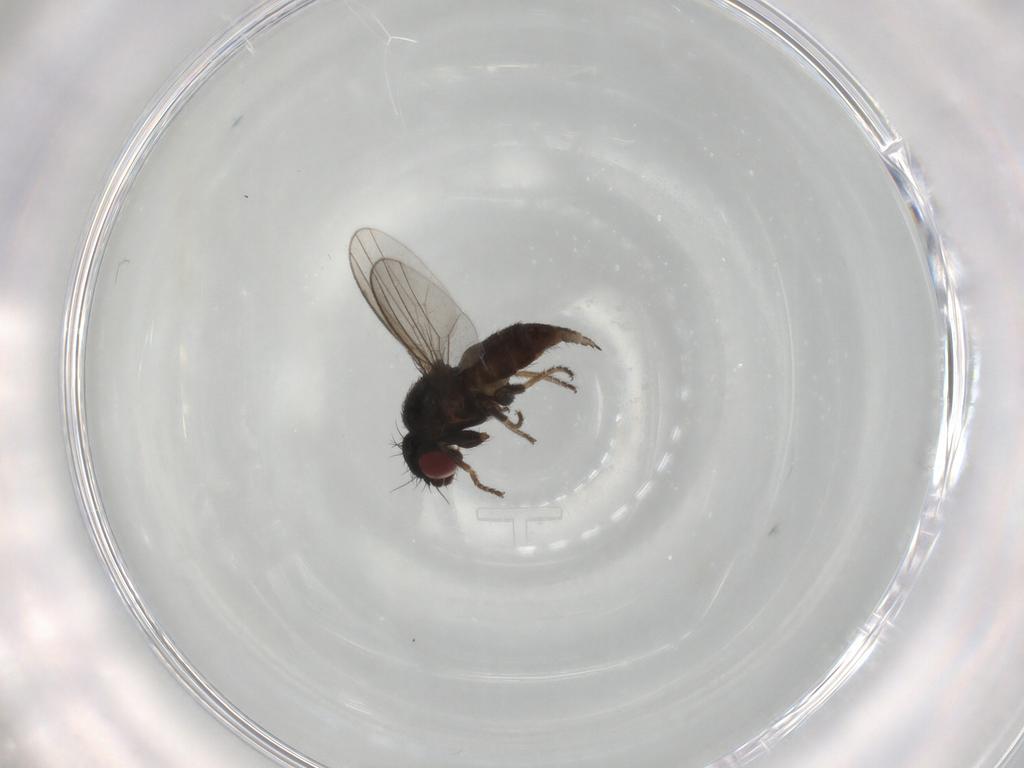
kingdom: Animalia
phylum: Arthropoda
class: Insecta
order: Diptera
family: Milichiidae
